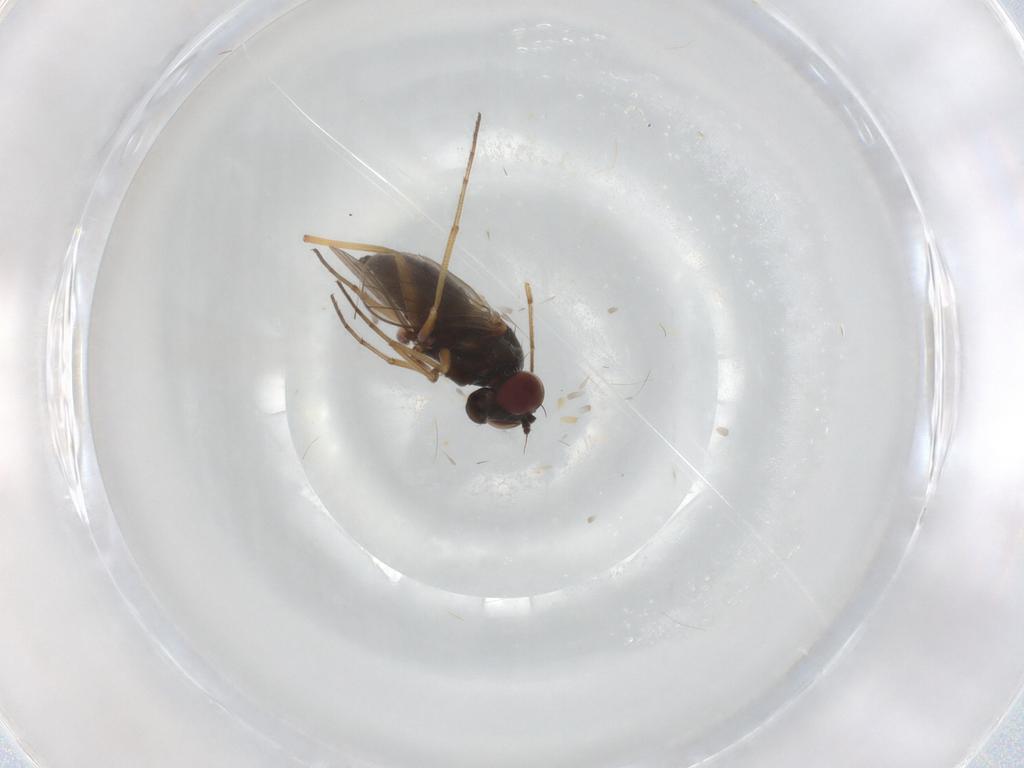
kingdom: Animalia
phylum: Arthropoda
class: Insecta
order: Diptera
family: Dolichopodidae
